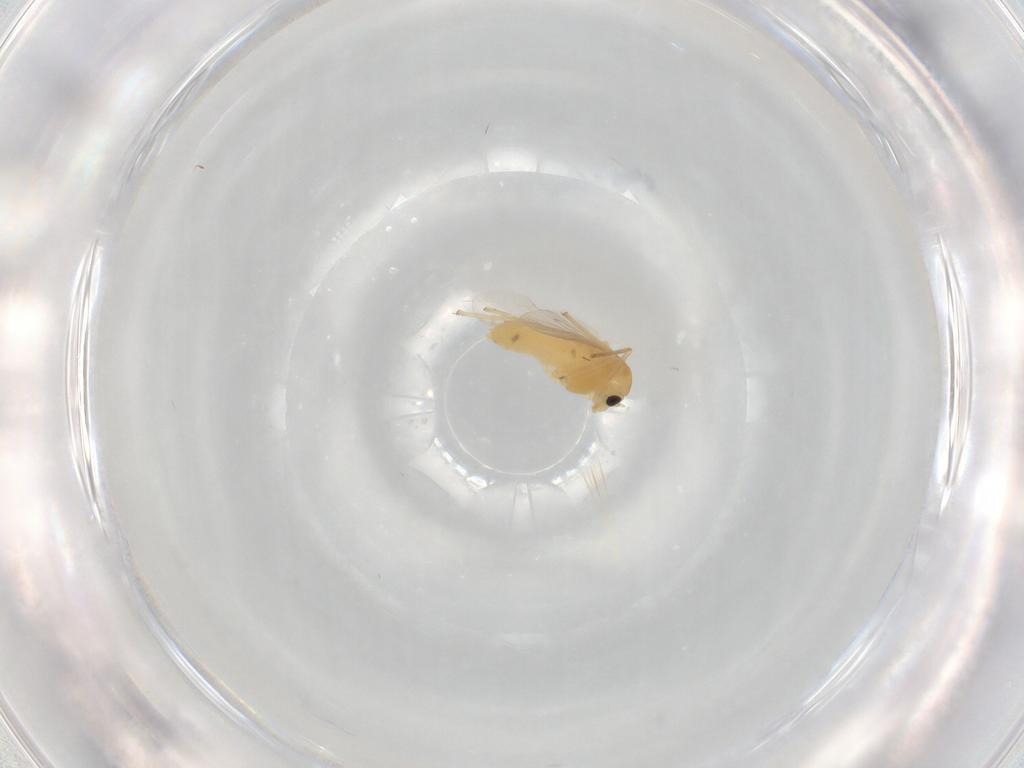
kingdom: Animalia
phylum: Arthropoda
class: Insecta
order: Diptera
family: Chironomidae
